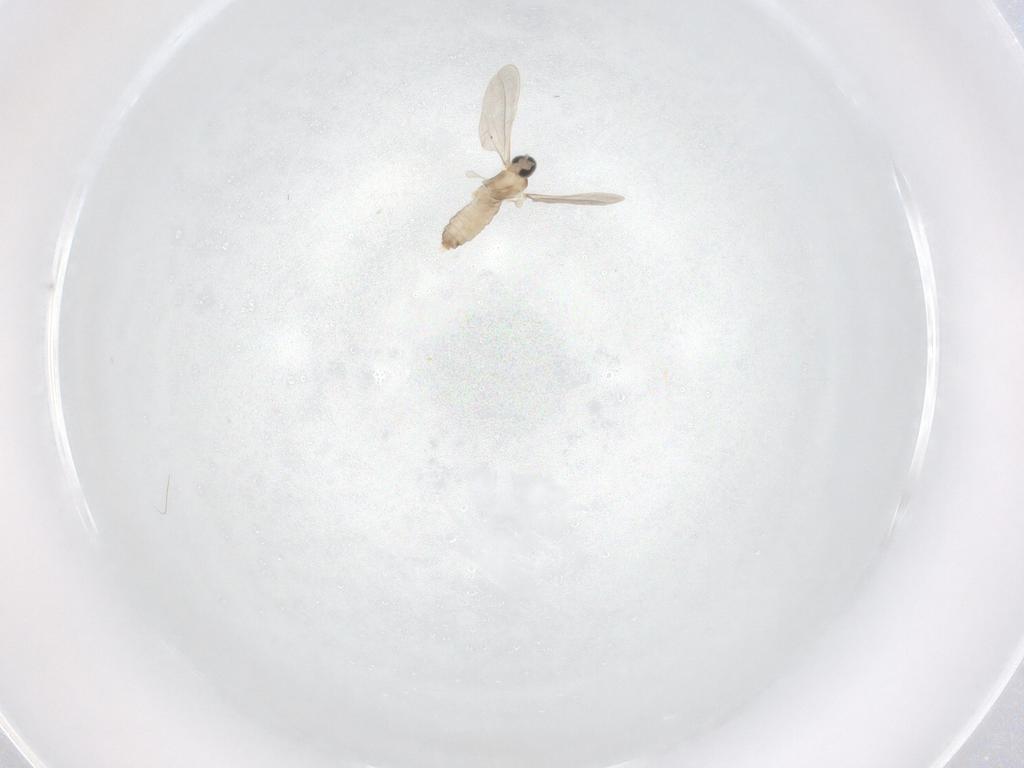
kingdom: Animalia
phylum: Arthropoda
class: Insecta
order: Diptera
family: Cecidomyiidae
